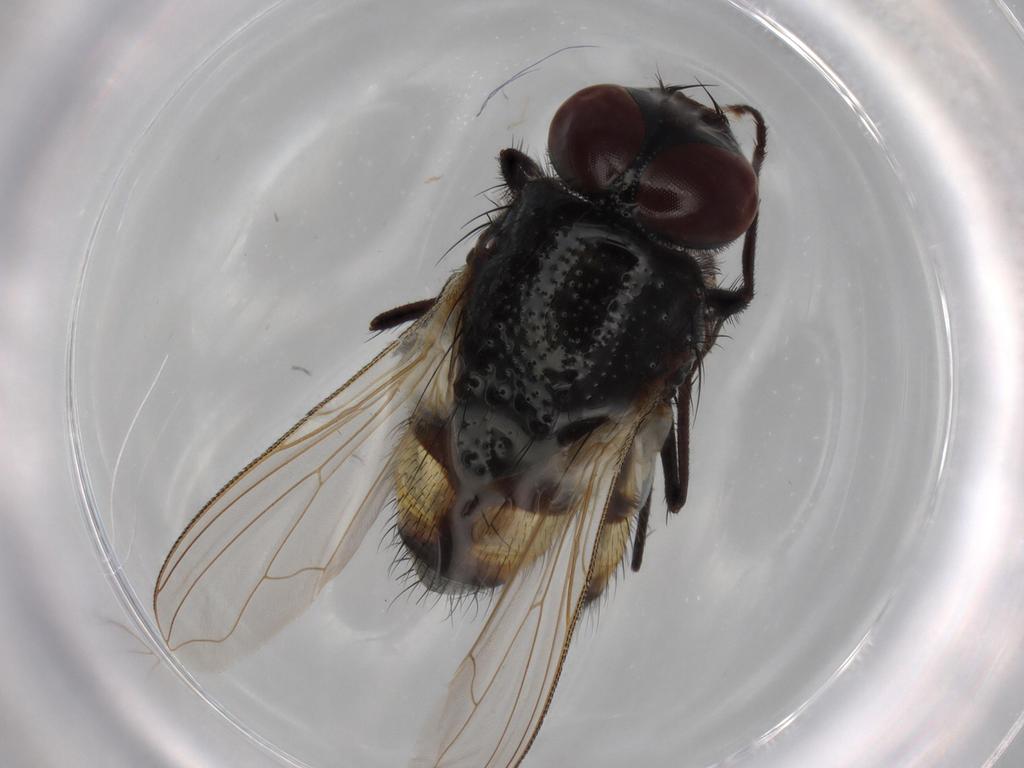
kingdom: Animalia
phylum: Arthropoda
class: Insecta
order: Diptera
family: Muscidae
